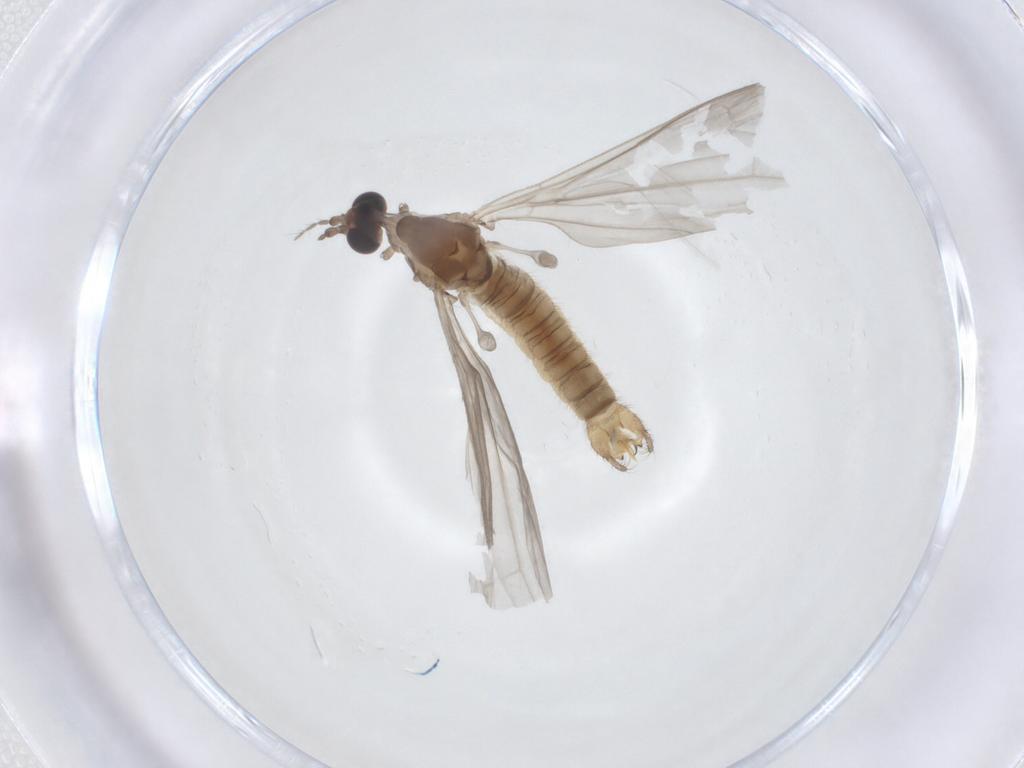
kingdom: Animalia
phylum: Arthropoda
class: Insecta
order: Diptera
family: Limoniidae
